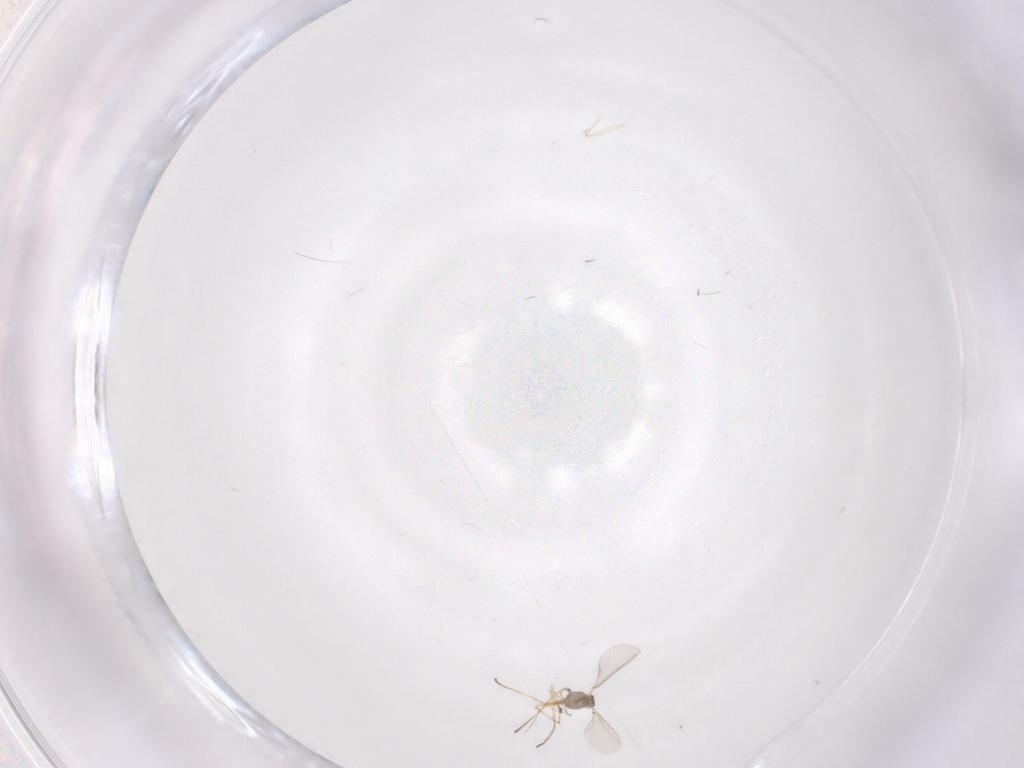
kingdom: Animalia
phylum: Arthropoda
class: Insecta
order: Diptera
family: Cecidomyiidae
